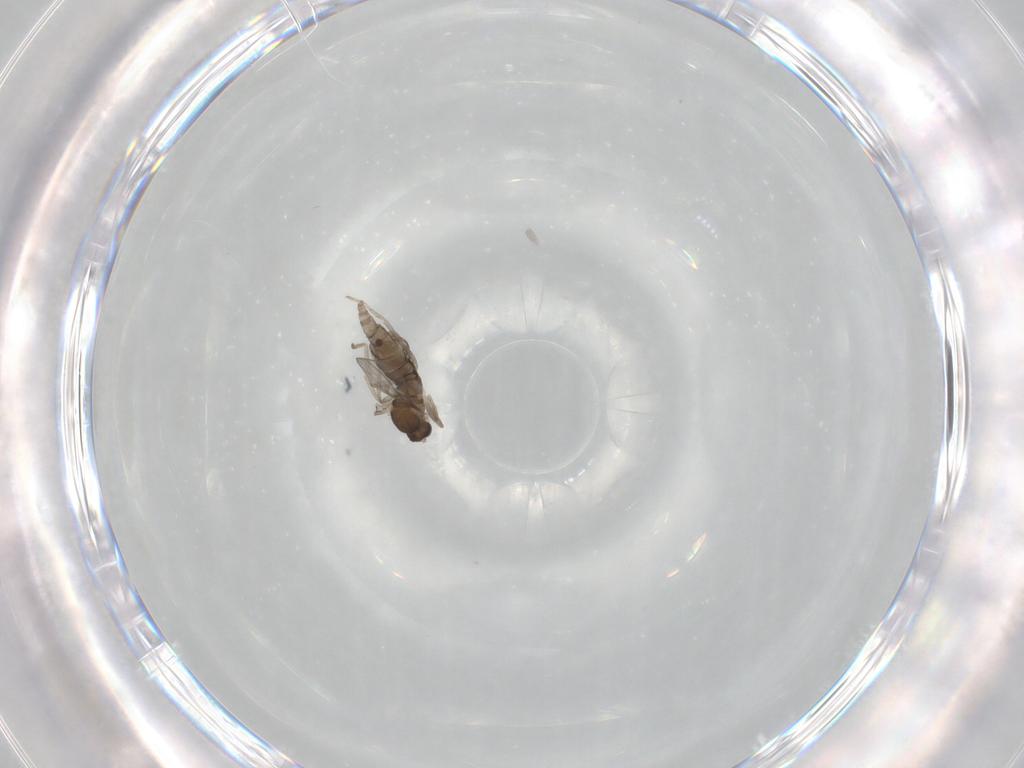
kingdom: Animalia
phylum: Arthropoda
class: Insecta
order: Diptera
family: Cecidomyiidae
